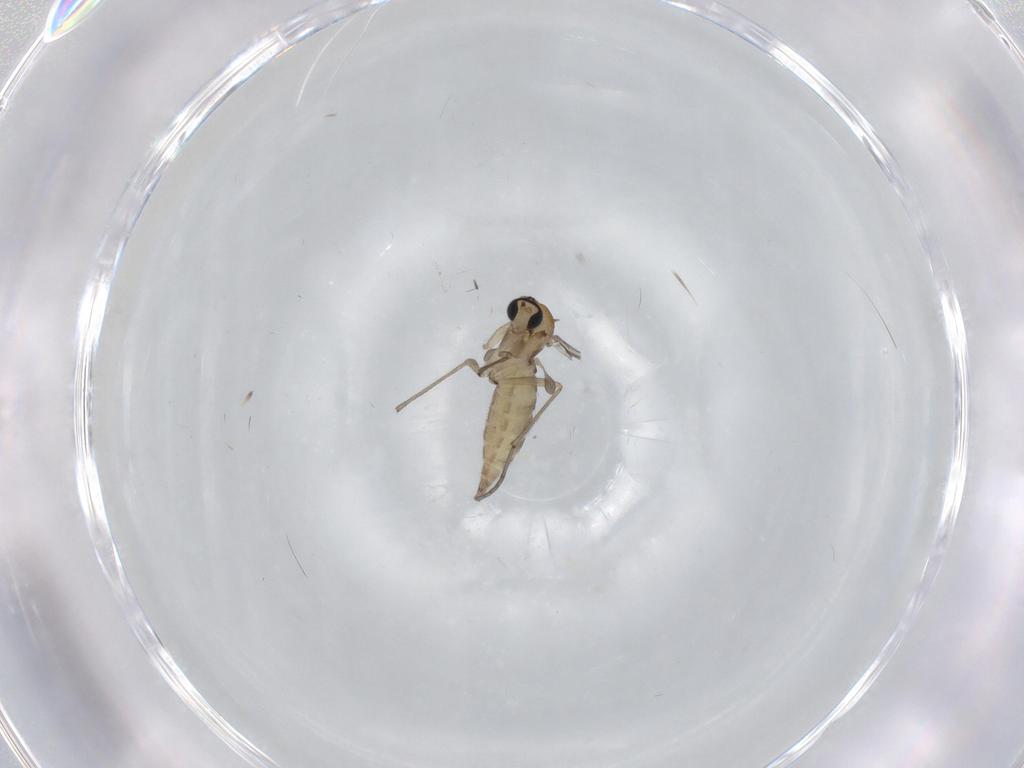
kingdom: Animalia
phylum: Arthropoda
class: Insecta
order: Diptera
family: Sciaridae
